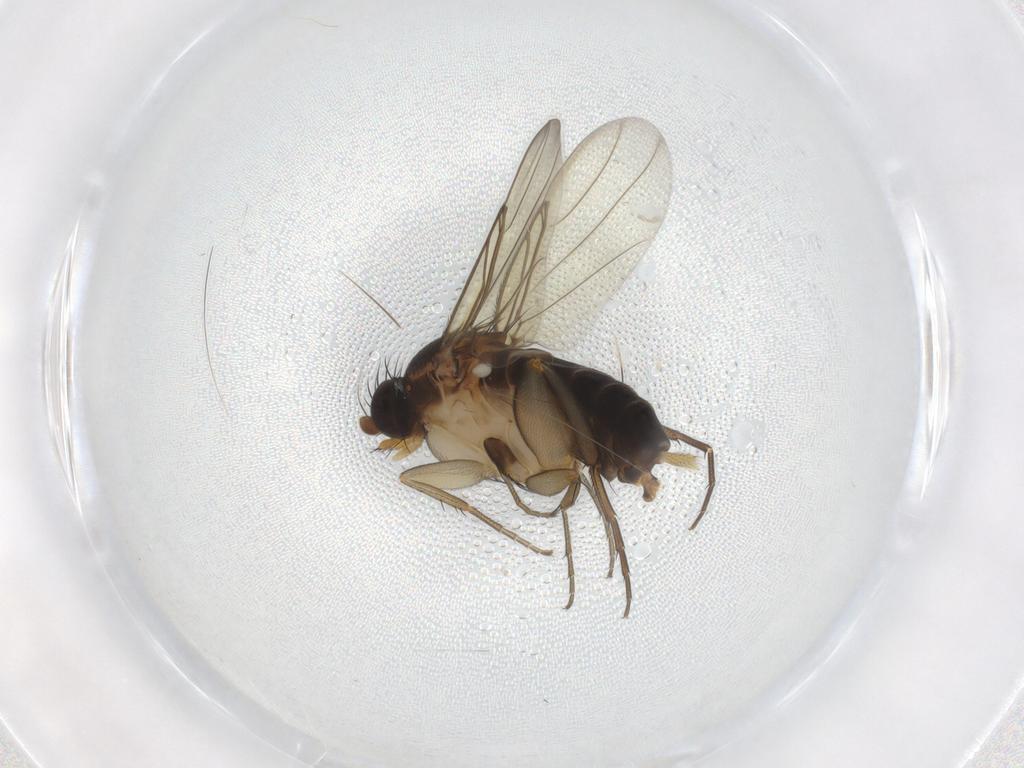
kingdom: Animalia
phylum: Arthropoda
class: Insecta
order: Diptera
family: Phoridae
